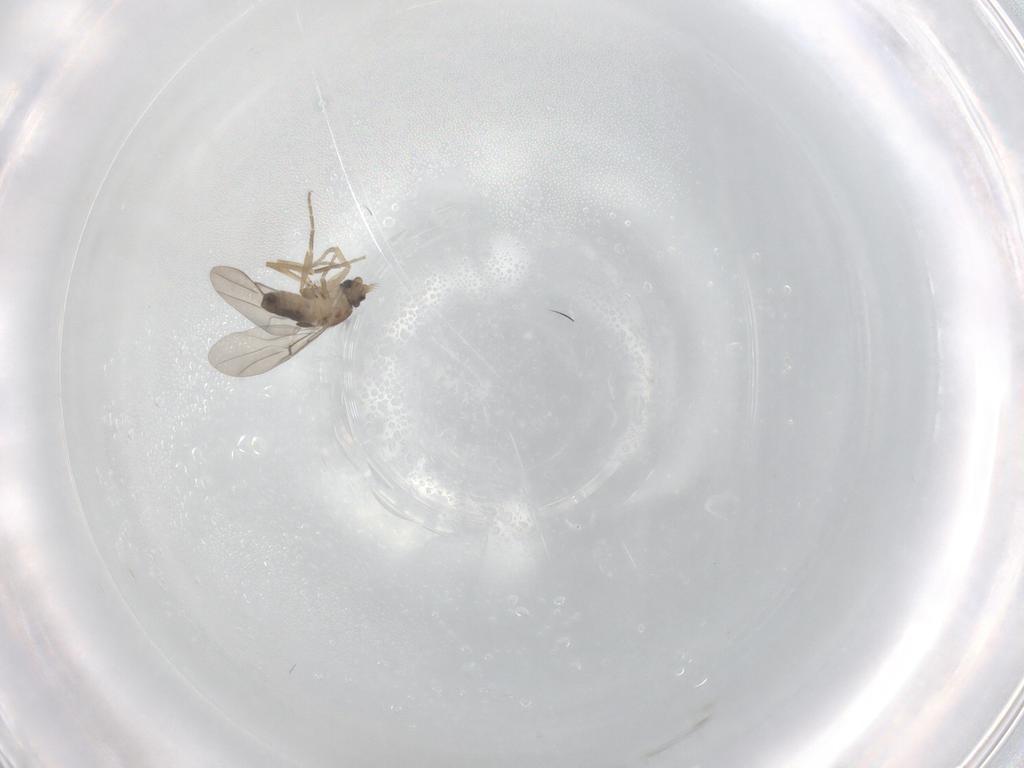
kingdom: Animalia
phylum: Arthropoda
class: Insecta
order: Diptera
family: Phoridae
